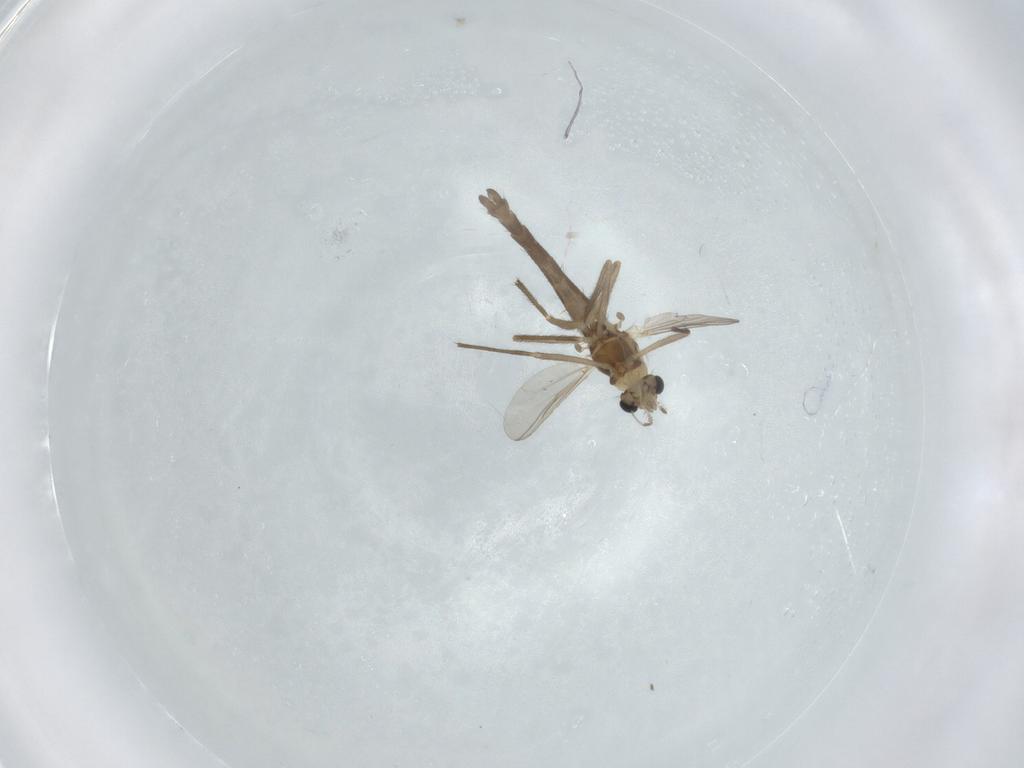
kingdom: Animalia
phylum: Arthropoda
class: Insecta
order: Diptera
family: Chironomidae
